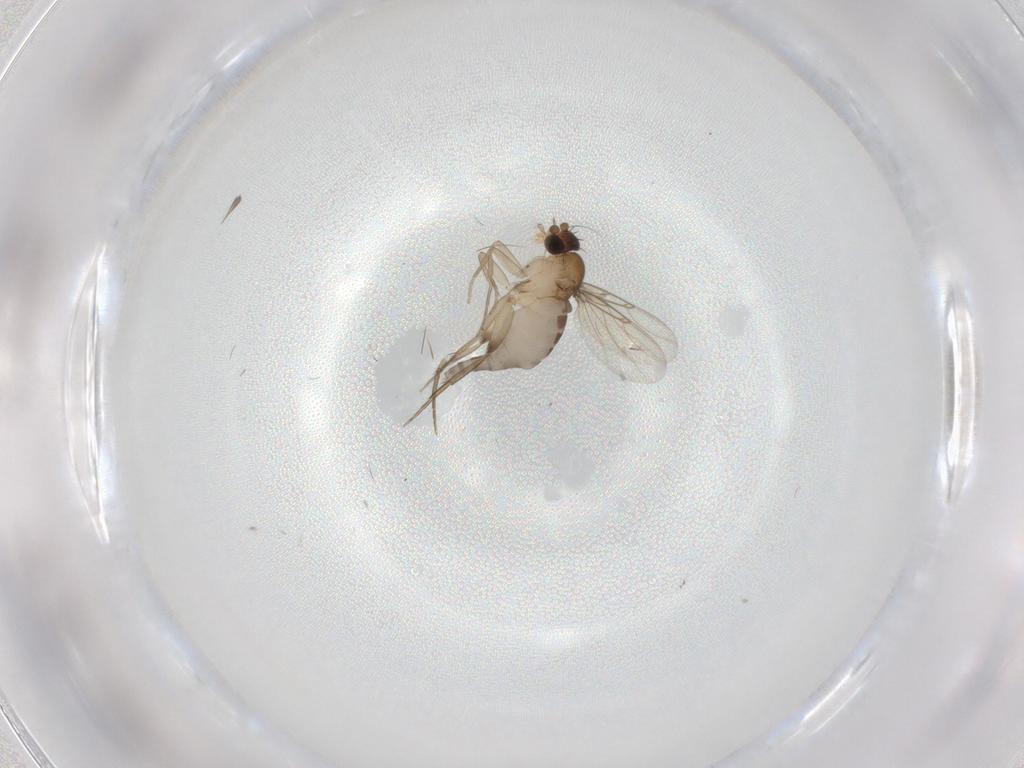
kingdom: Animalia
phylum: Arthropoda
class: Insecta
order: Diptera
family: Phoridae
